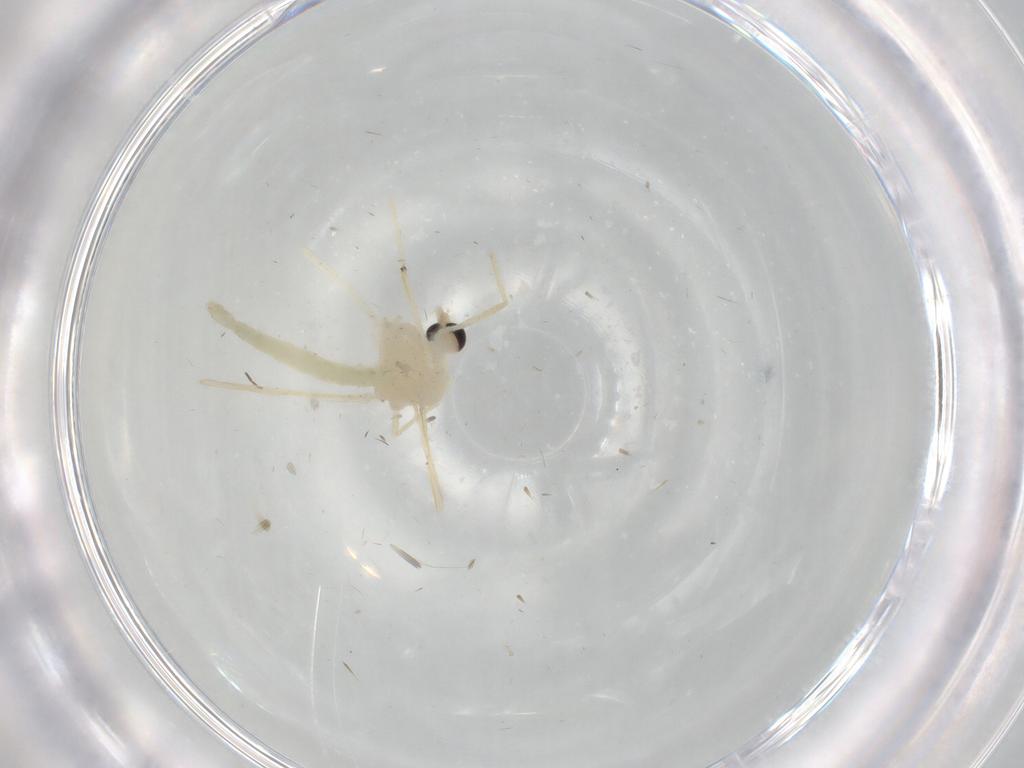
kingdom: Animalia
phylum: Arthropoda
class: Insecta
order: Diptera
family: Chironomidae
